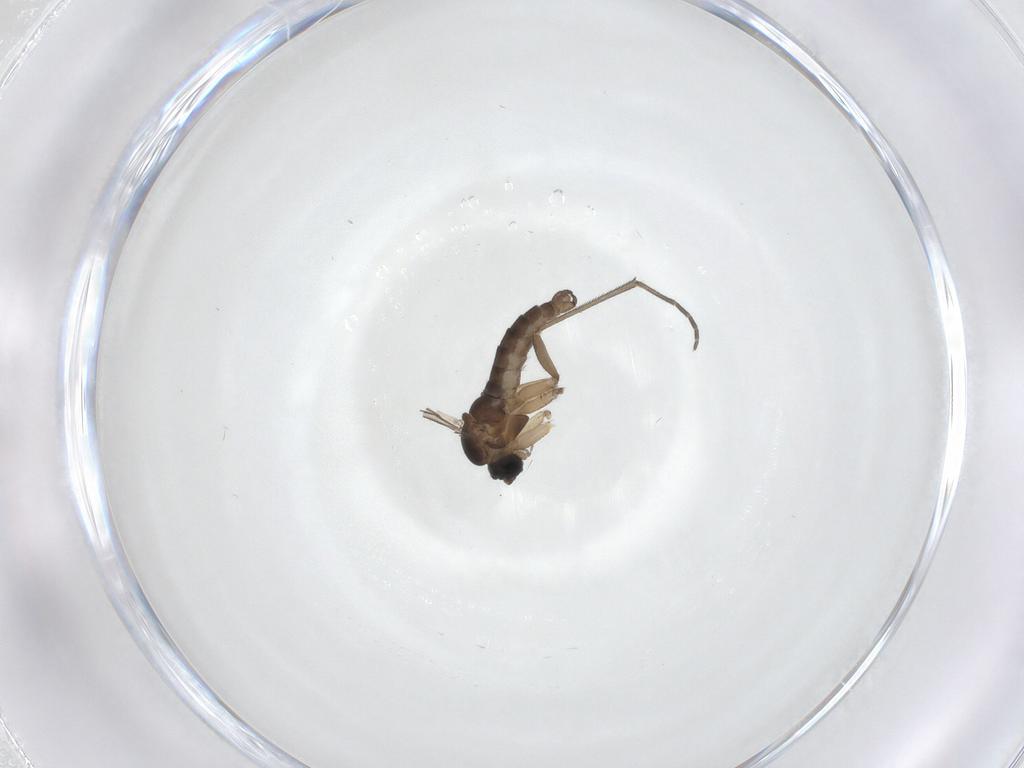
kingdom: Animalia
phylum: Arthropoda
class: Insecta
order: Diptera
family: Sciaridae
